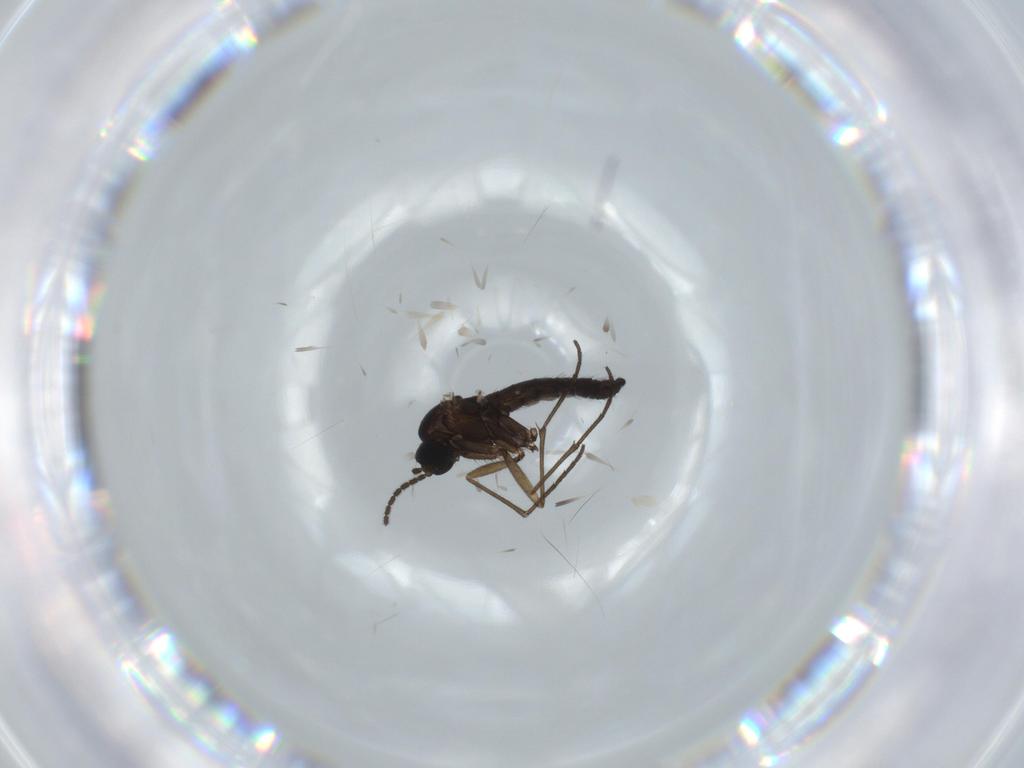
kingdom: Animalia
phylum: Arthropoda
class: Insecta
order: Diptera
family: Sciaridae
